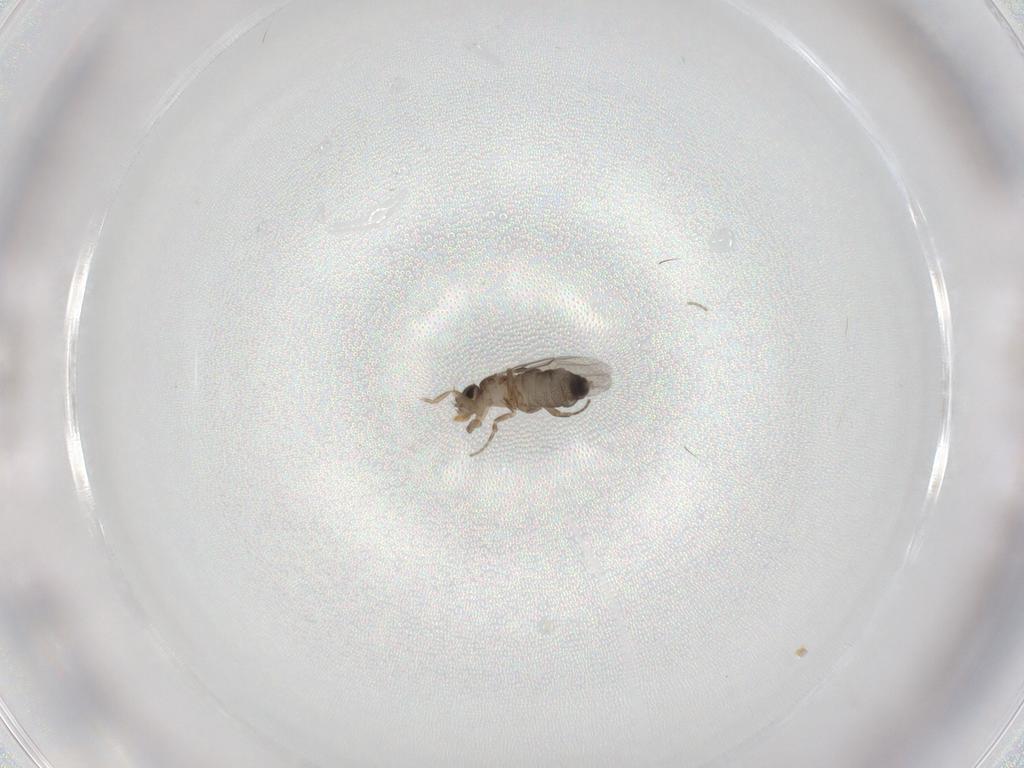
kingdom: Animalia
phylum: Arthropoda
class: Insecta
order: Diptera
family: Phoridae
